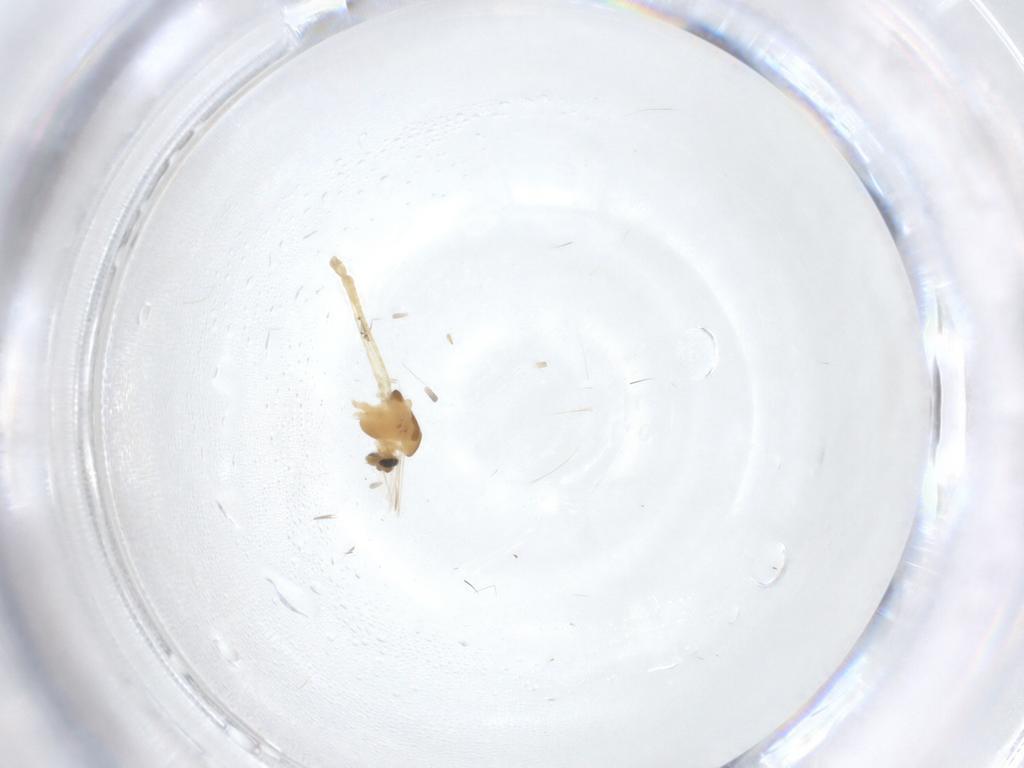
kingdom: Animalia
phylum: Arthropoda
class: Insecta
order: Diptera
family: Chironomidae
